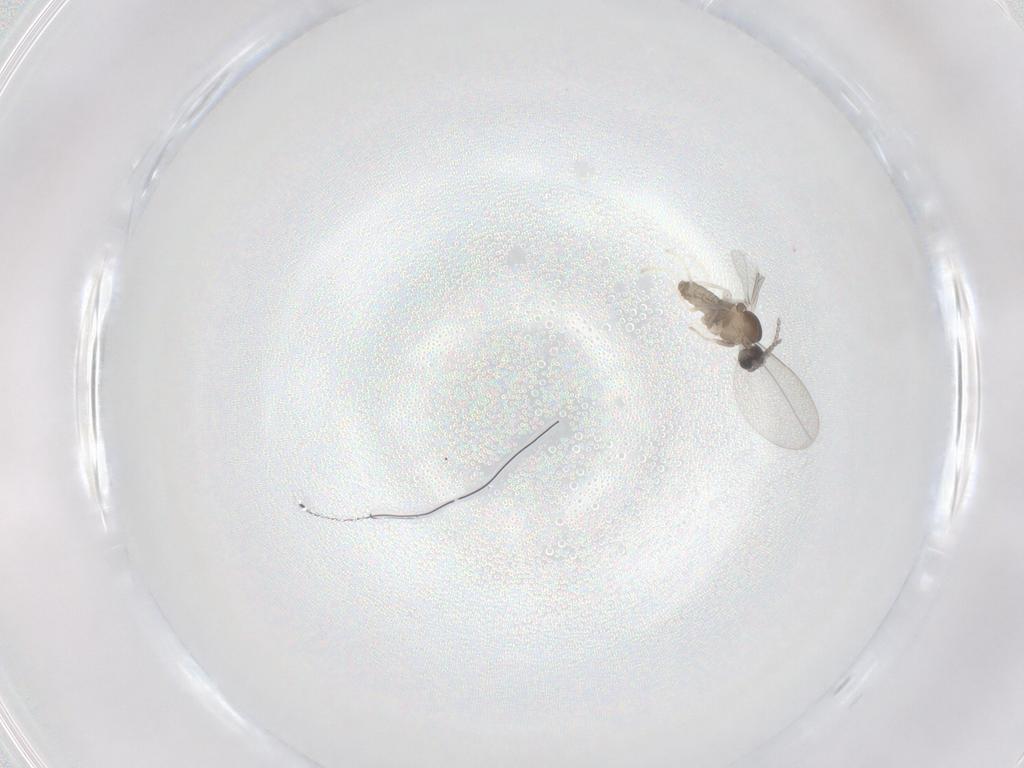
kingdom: Animalia
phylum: Arthropoda
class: Insecta
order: Diptera
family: Cecidomyiidae
